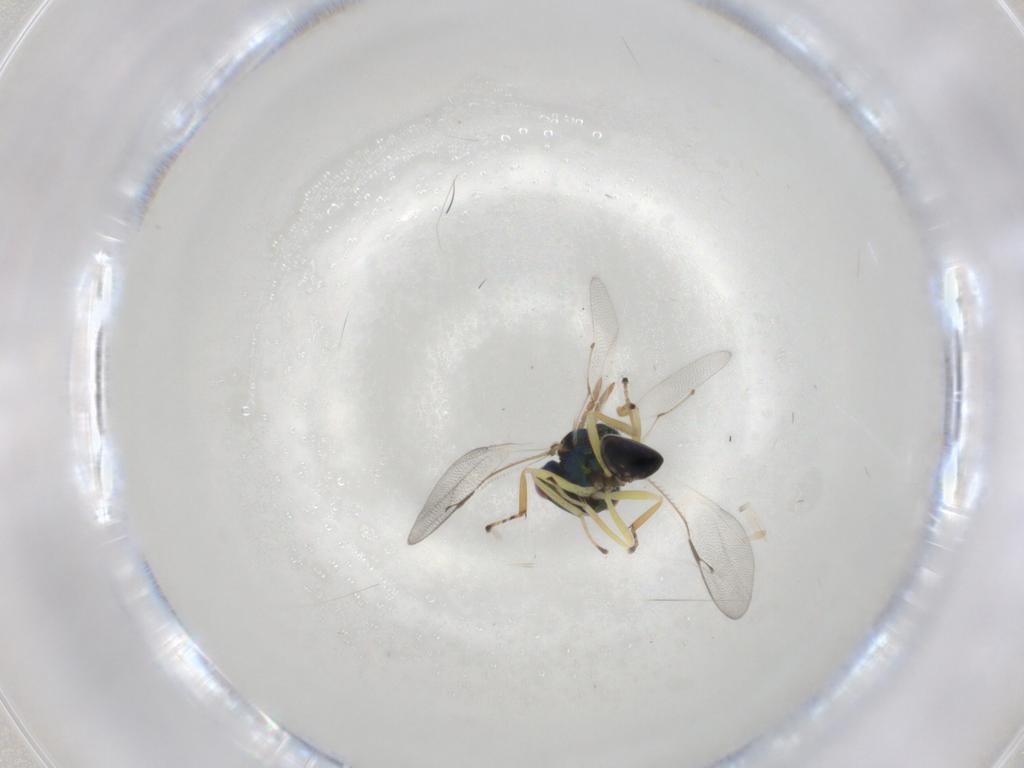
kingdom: Animalia
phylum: Arthropoda
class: Insecta
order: Hymenoptera
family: Pteromalidae
